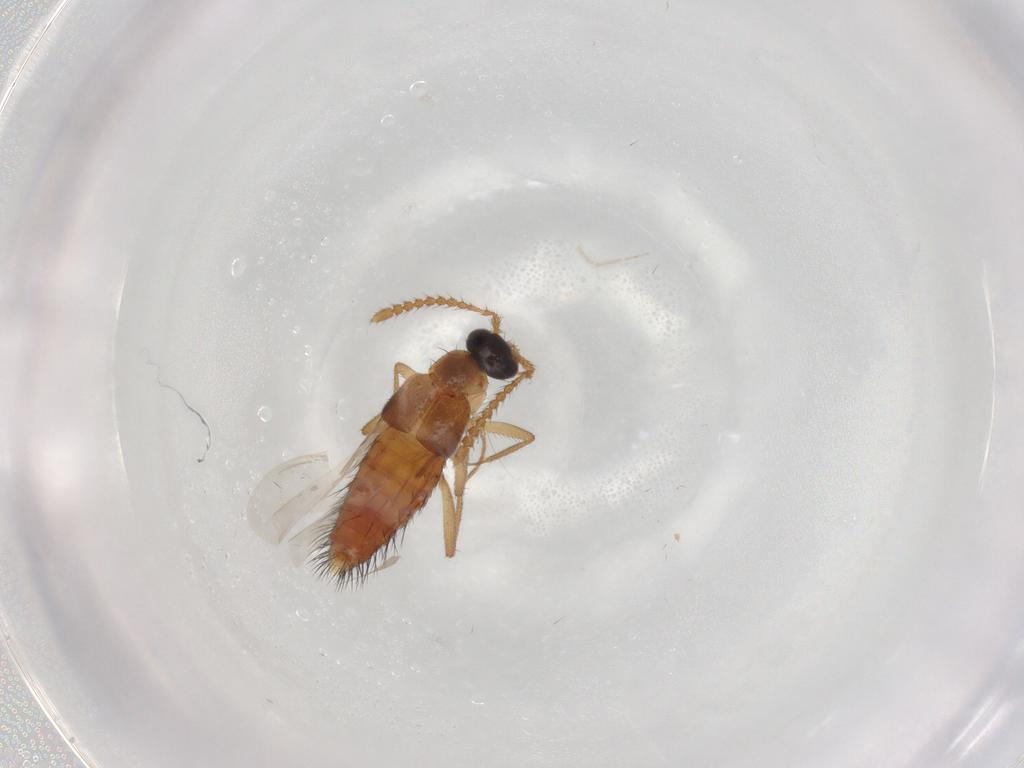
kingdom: Animalia
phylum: Arthropoda
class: Insecta
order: Coleoptera
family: Staphylinidae
